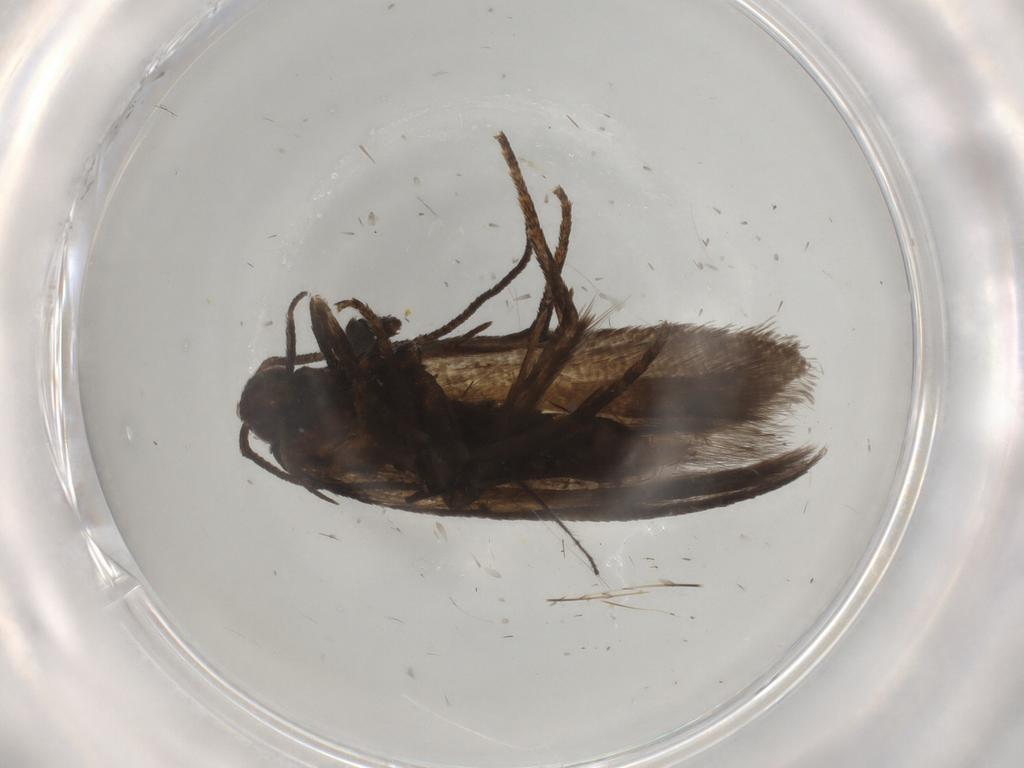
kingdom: Animalia
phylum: Arthropoda
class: Insecta
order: Lepidoptera
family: Gelechiidae
